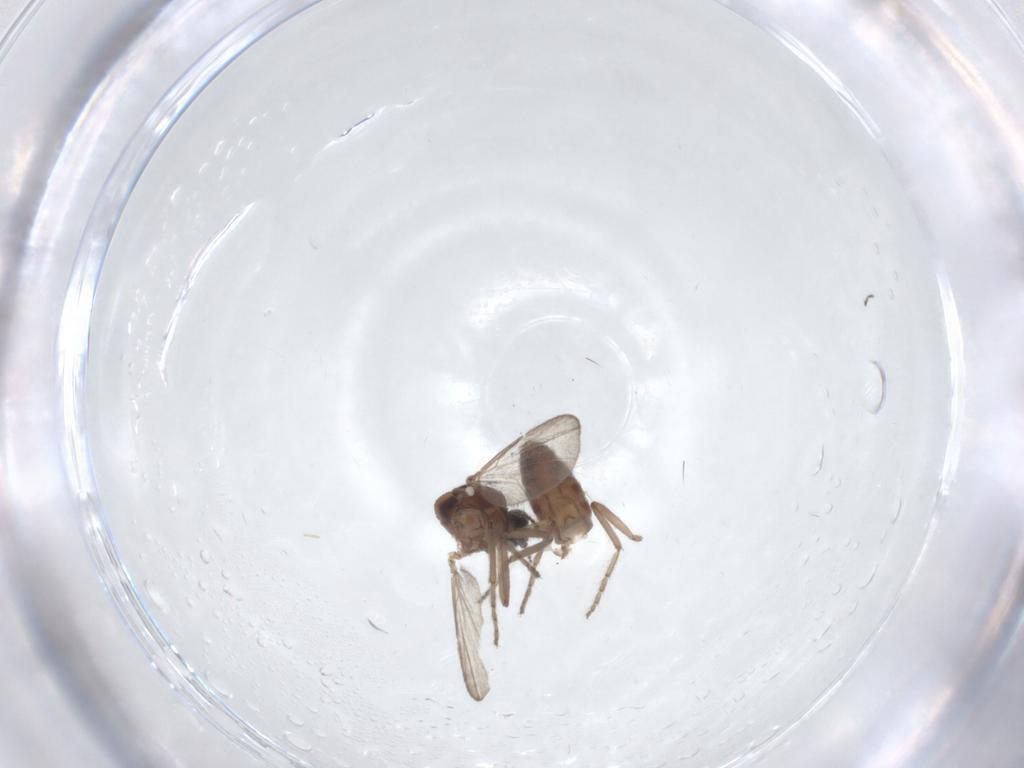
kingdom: Animalia
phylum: Arthropoda
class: Insecta
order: Diptera
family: Ceratopogonidae
